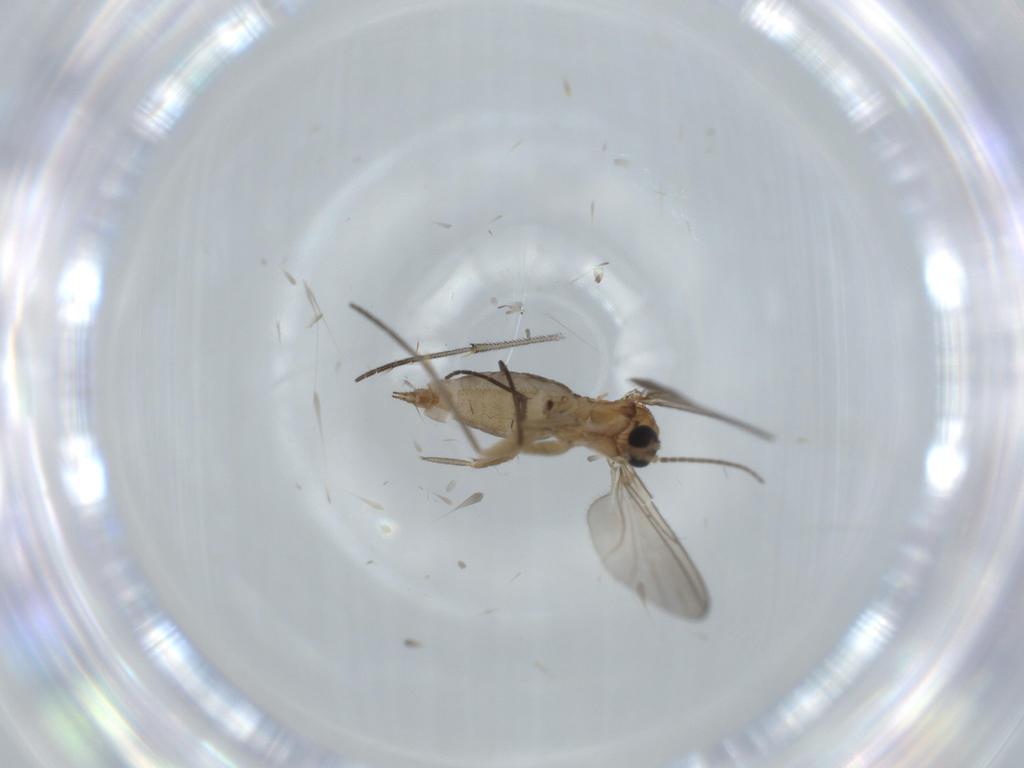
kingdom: Animalia
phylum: Arthropoda
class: Insecta
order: Diptera
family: Sciaridae
